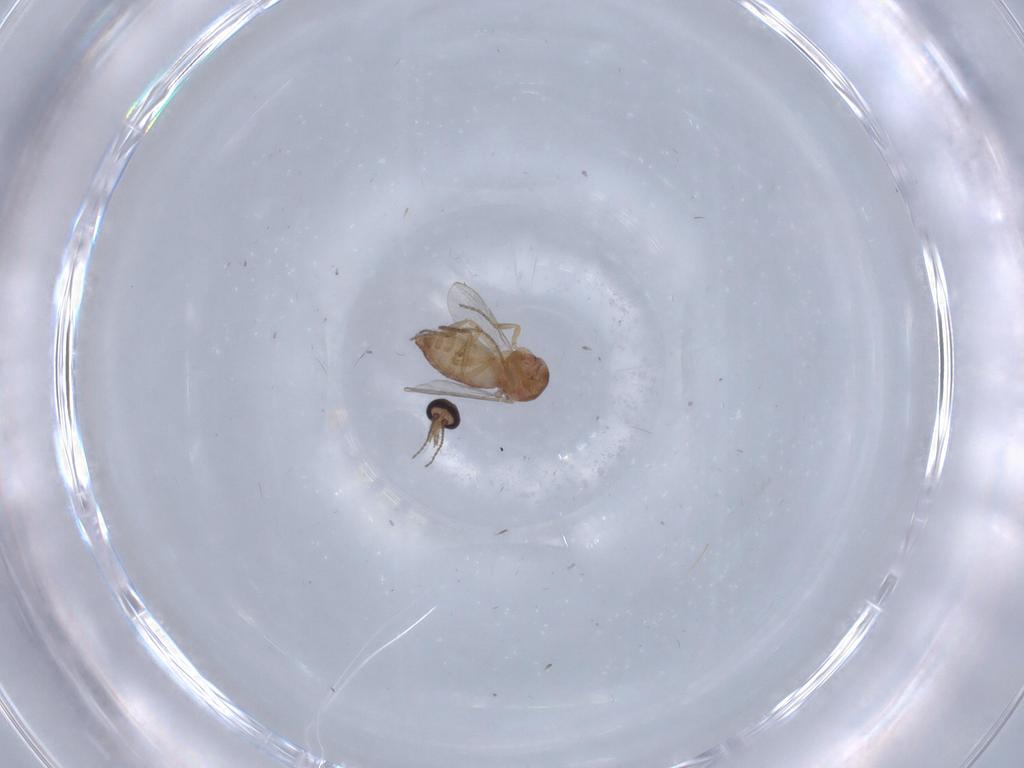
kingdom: Animalia
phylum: Arthropoda
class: Insecta
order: Diptera
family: Ceratopogonidae
